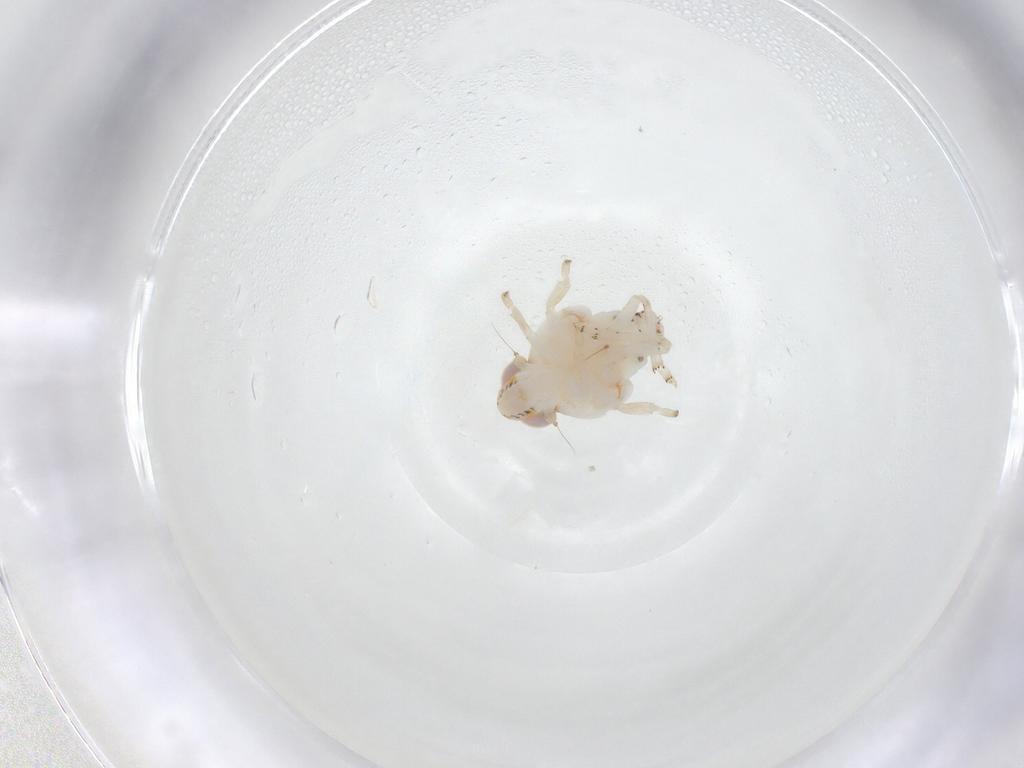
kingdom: Animalia
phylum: Arthropoda
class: Insecta
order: Hemiptera
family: Nogodinidae
